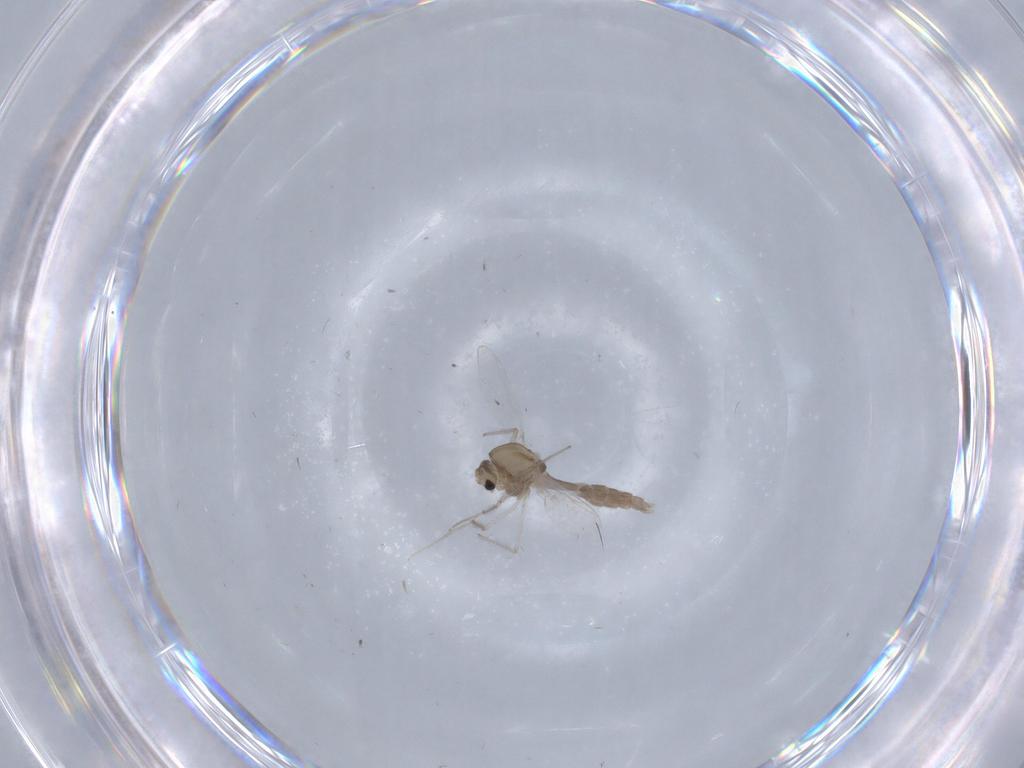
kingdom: Animalia
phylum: Arthropoda
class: Insecta
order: Diptera
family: Chironomidae
